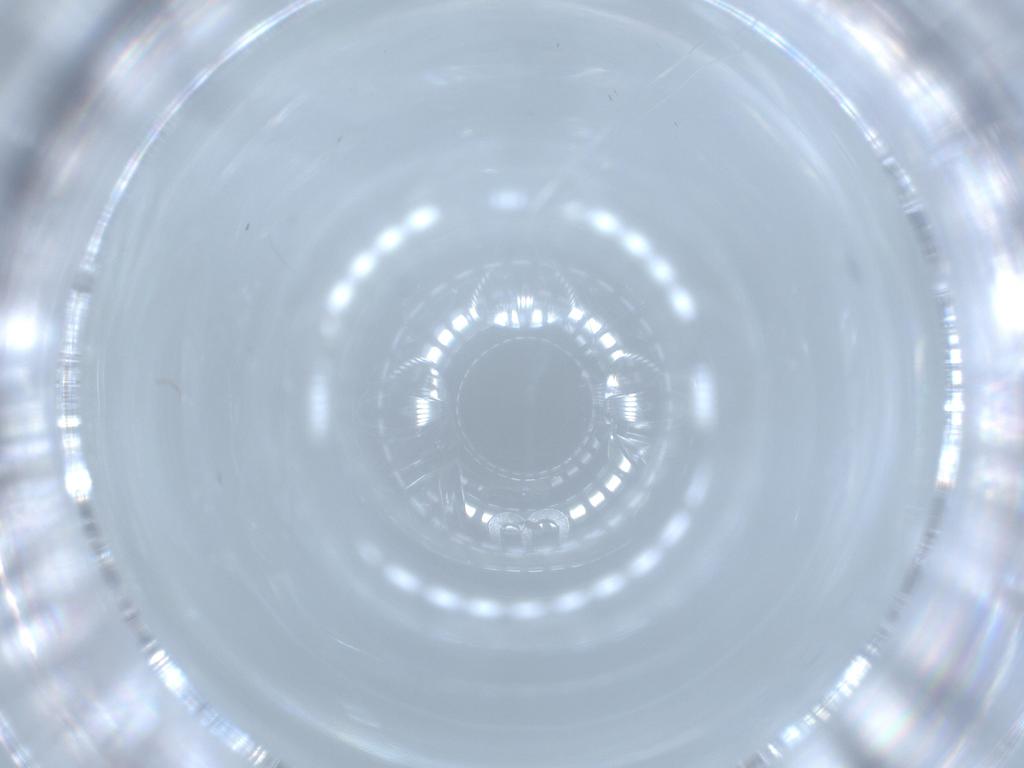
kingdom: Animalia
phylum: Arthropoda
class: Insecta
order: Diptera
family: Cecidomyiidae
